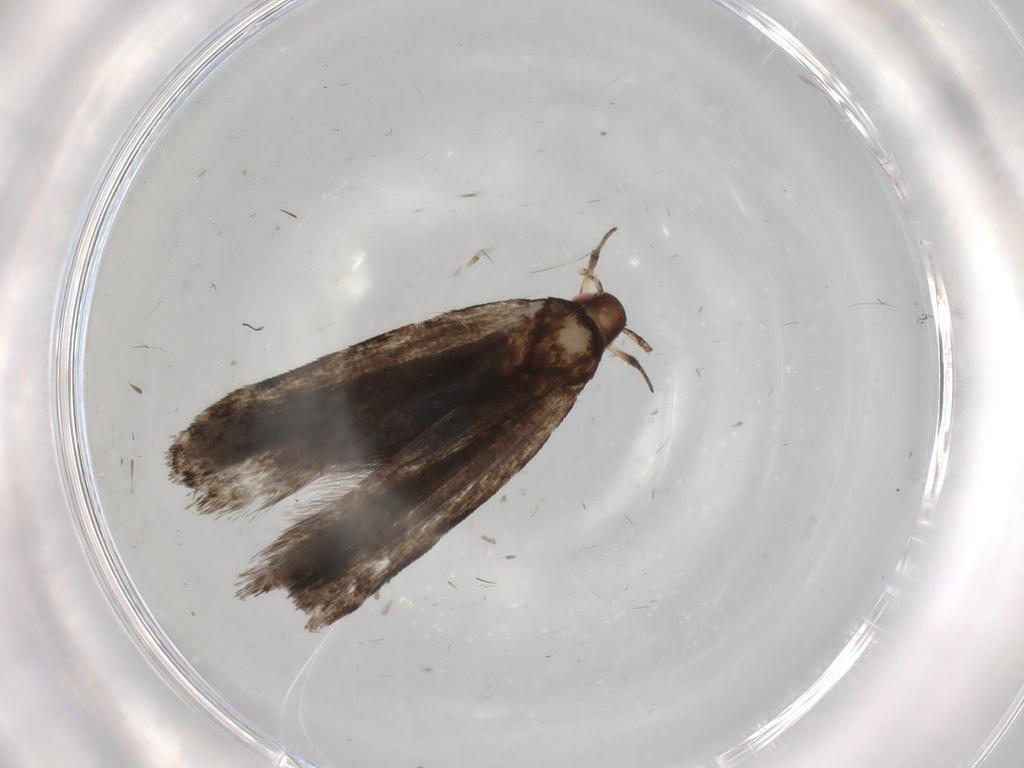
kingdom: Animalia
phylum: Arthropoda
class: Insecta
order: Lepidoptera
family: Gelechiidae
